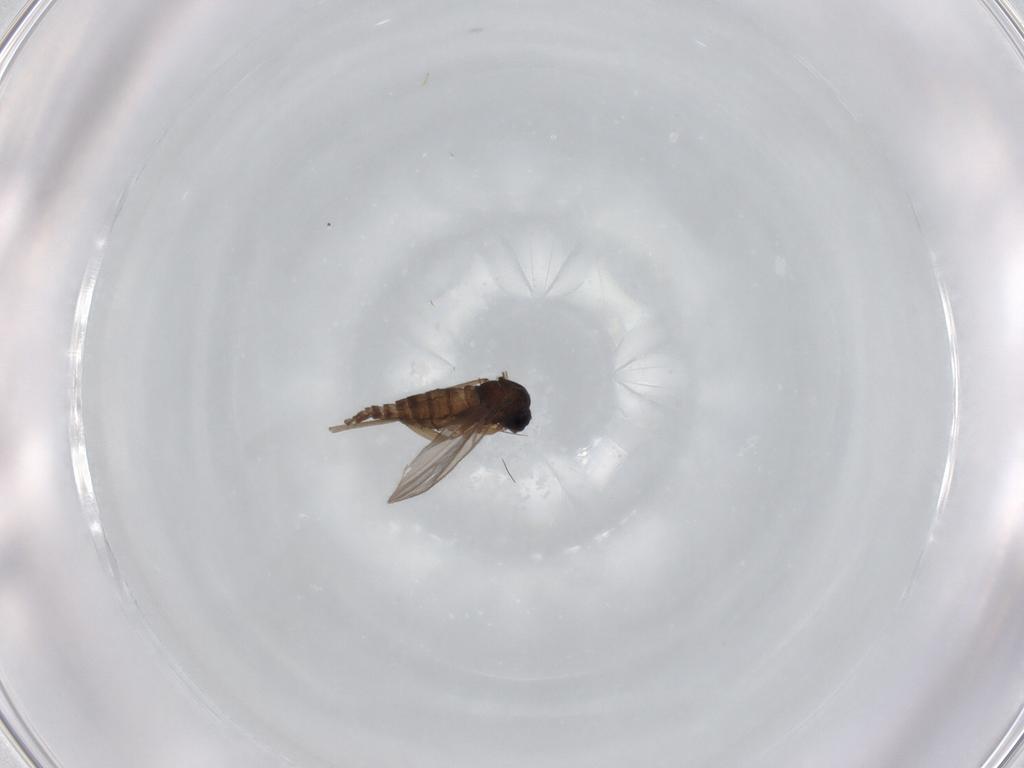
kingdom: Animalia
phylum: Arthropoda
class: Insecta
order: Diptera
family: Sciaridae
